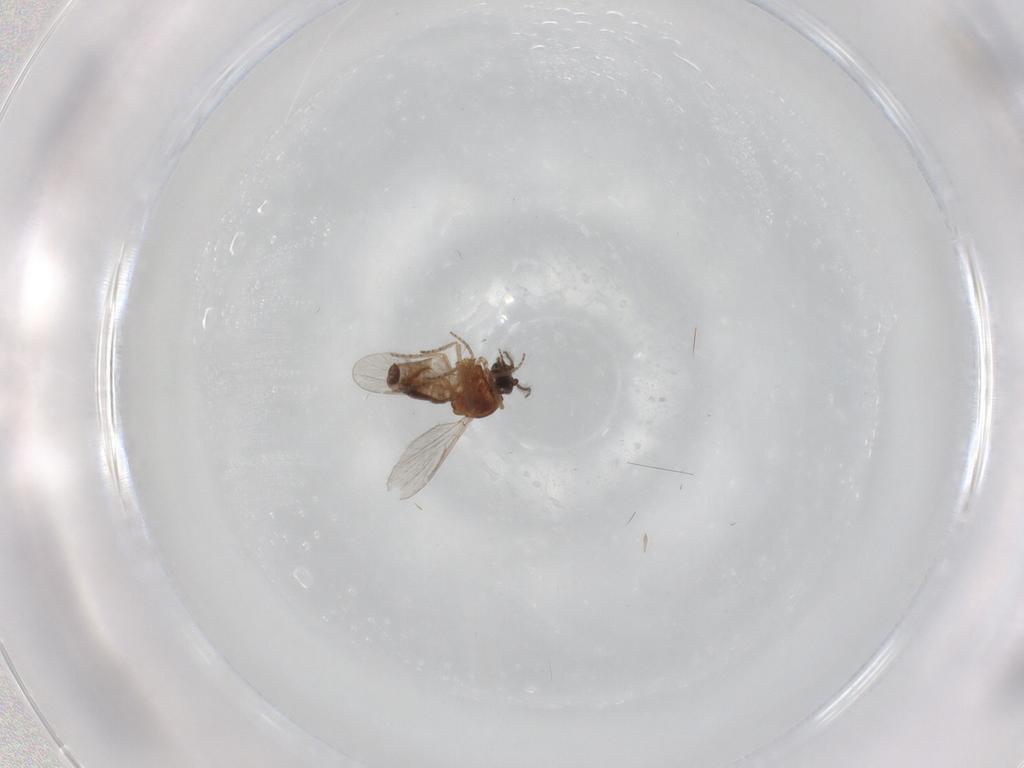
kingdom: Animalia
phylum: Arthropoda
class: Insecta
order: Diptera
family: Ceratopogonidae
